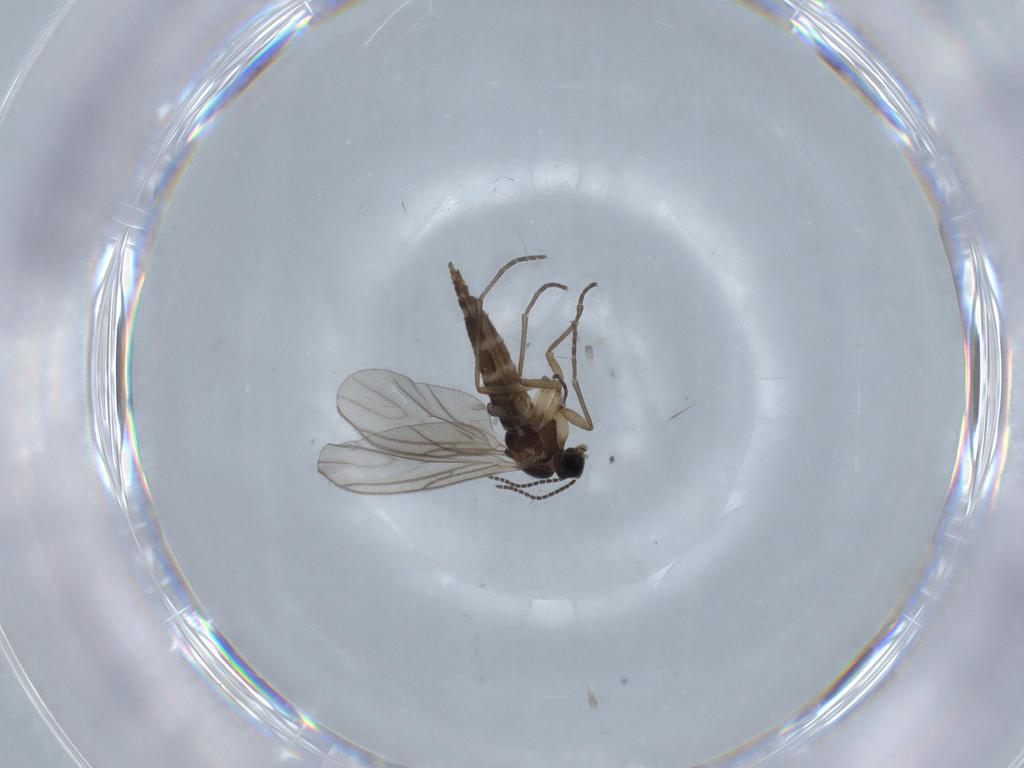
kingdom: Animalia
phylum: Arthropoda
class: Insecta
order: Diptera
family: Sciaridae
